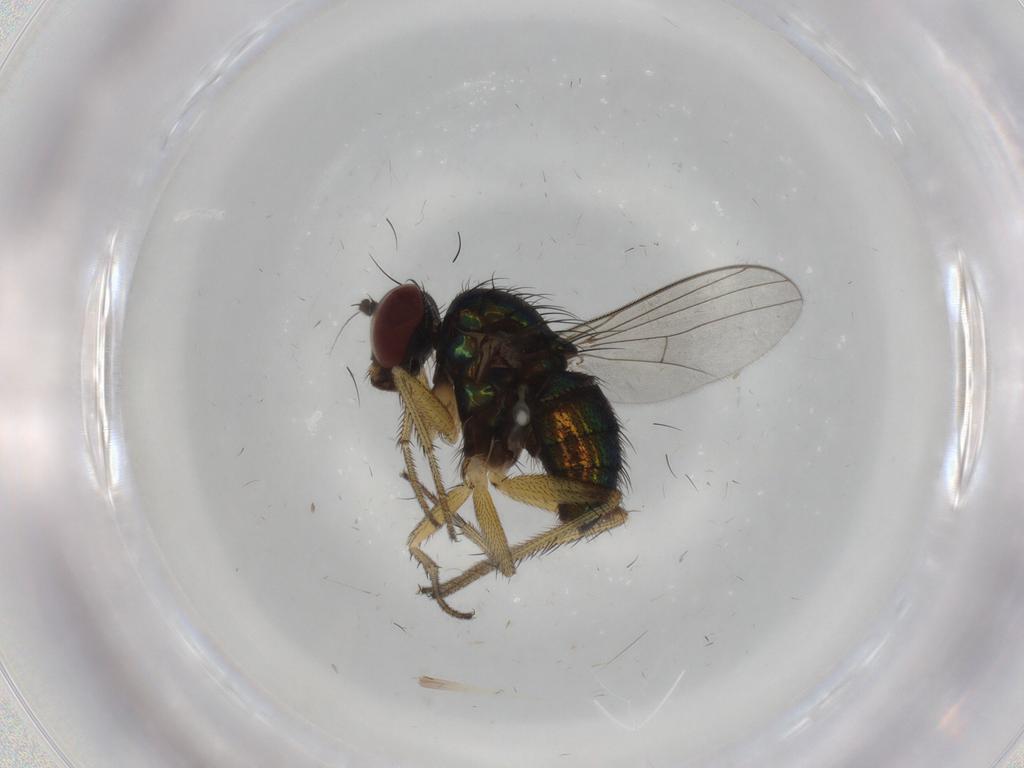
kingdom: Animalia
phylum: Arthropoda
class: Insecta
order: Diptera
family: Dolichopodidae
